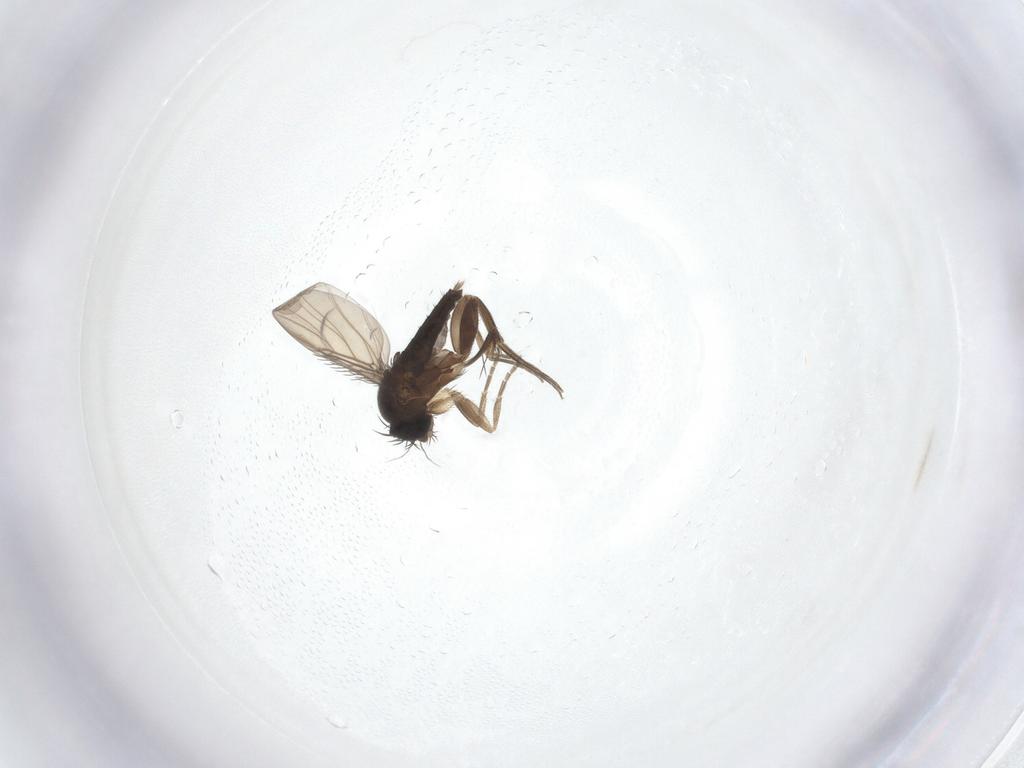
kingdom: Animalia
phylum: Arthropoda
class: Insecta
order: Diptera
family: Phoridae
